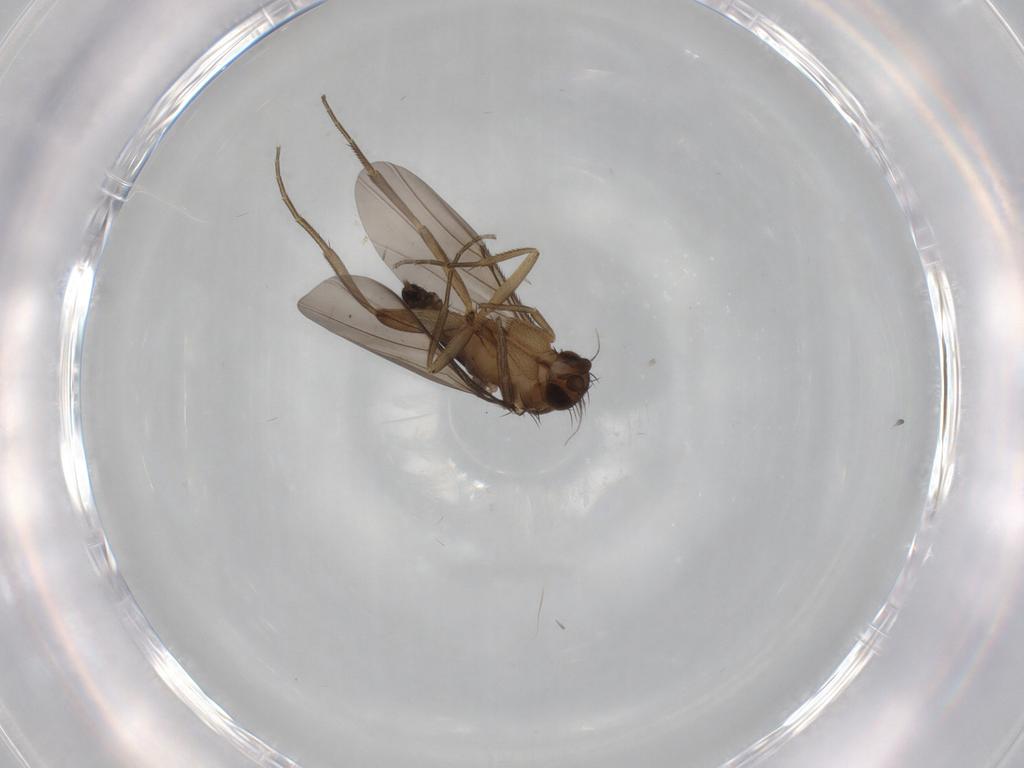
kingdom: Animalia
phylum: Arthropoda
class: Insecta
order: Diptera
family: Phoridae
